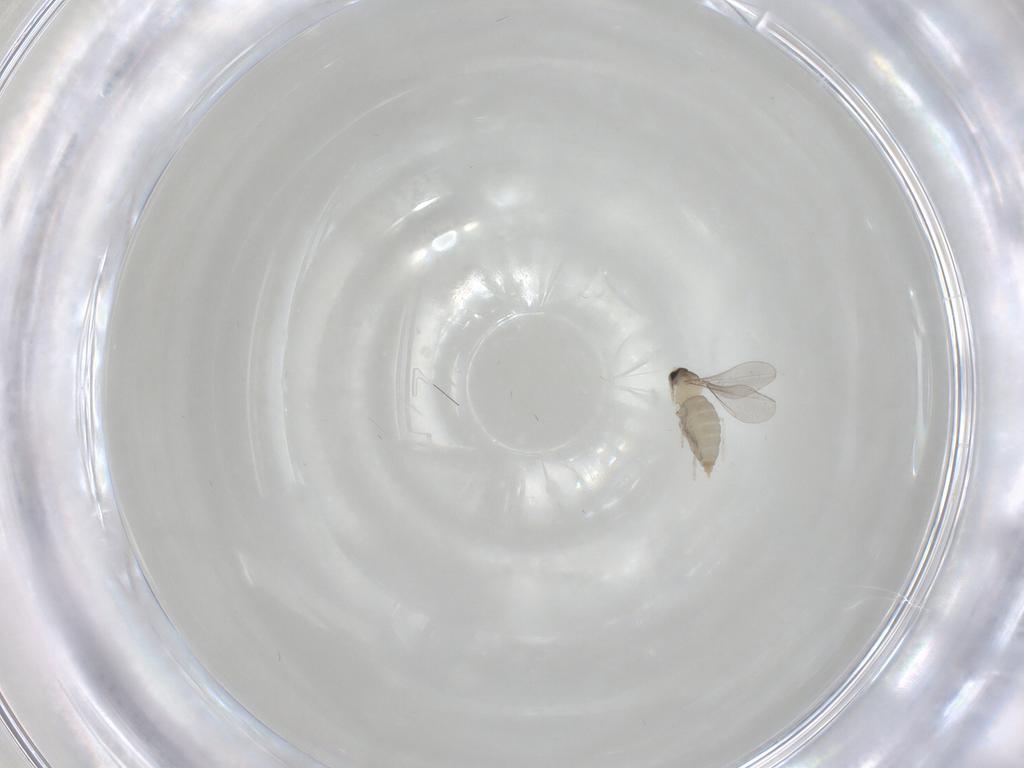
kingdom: Animalia
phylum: Arthropoda
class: Insecta
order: Diptera
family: Cecidomyiidae
